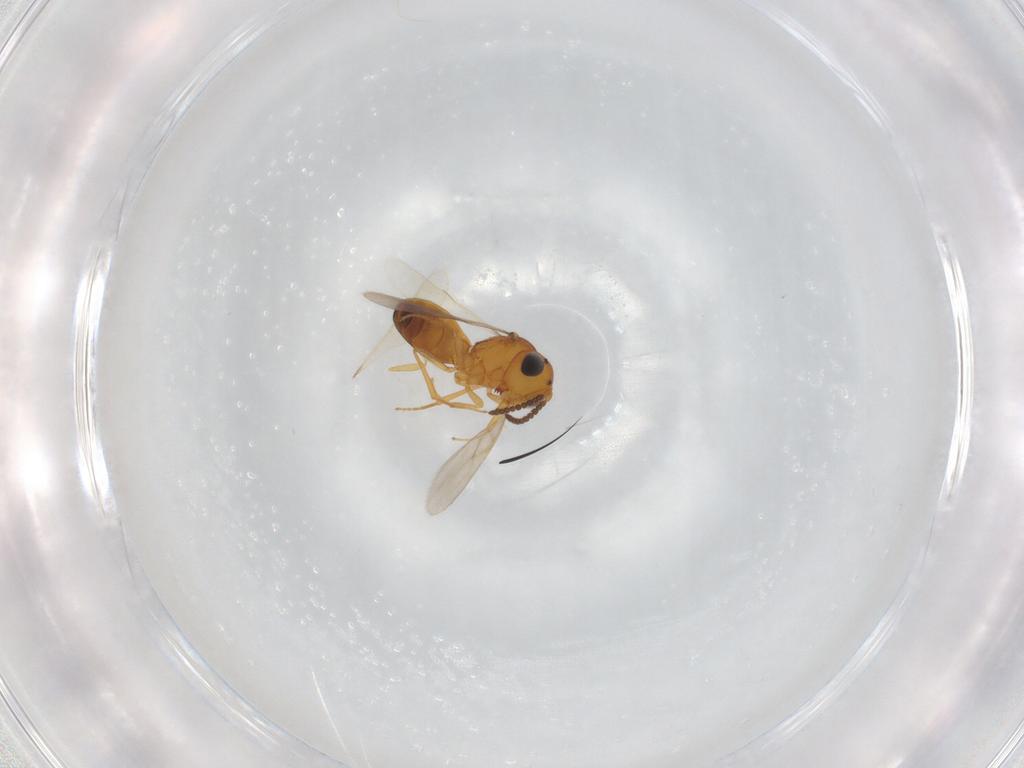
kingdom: Animalia
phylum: Arthropoda
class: Insecta
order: Hymenoptera
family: Scelionidae
